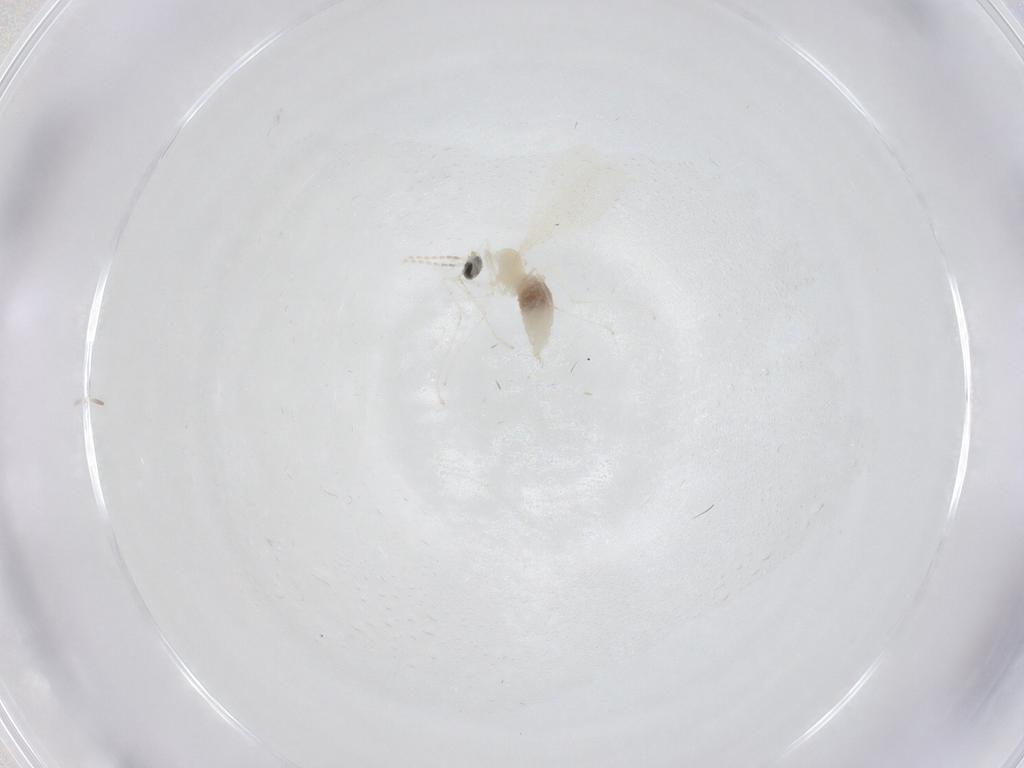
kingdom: Animalia
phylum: Arthropoda
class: Insecta
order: Diptera
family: Cecidomyiidae
